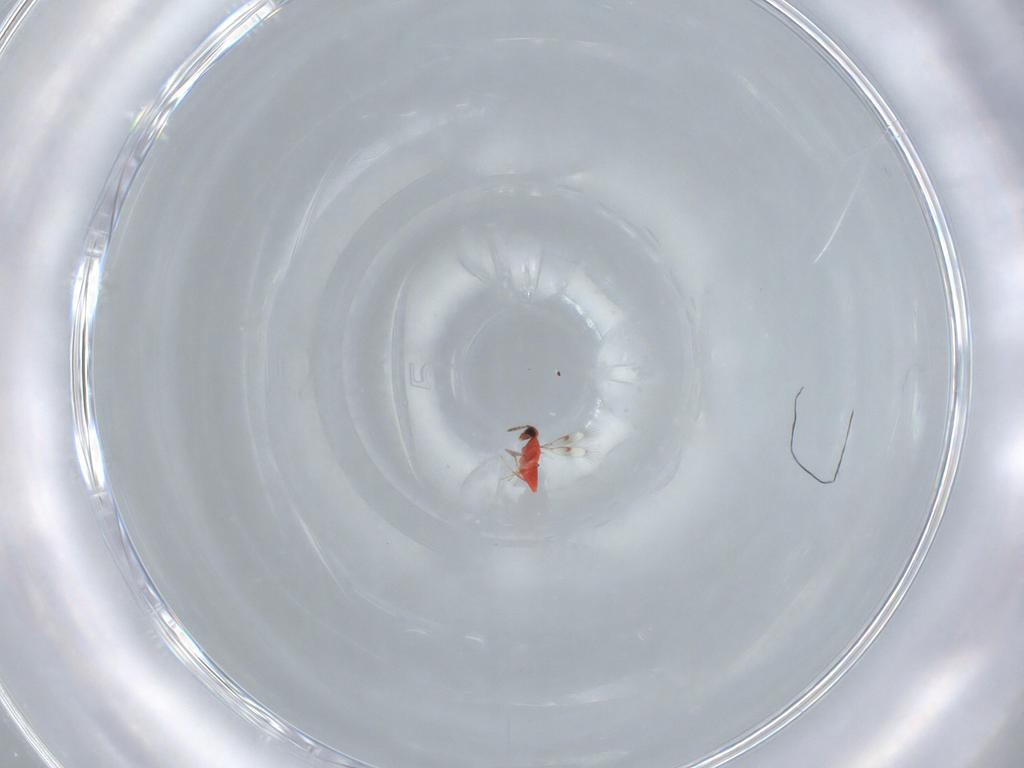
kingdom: Animalia
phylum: Arthropoda
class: Insecta
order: Hymenoptera
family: Trichogrammatidae
